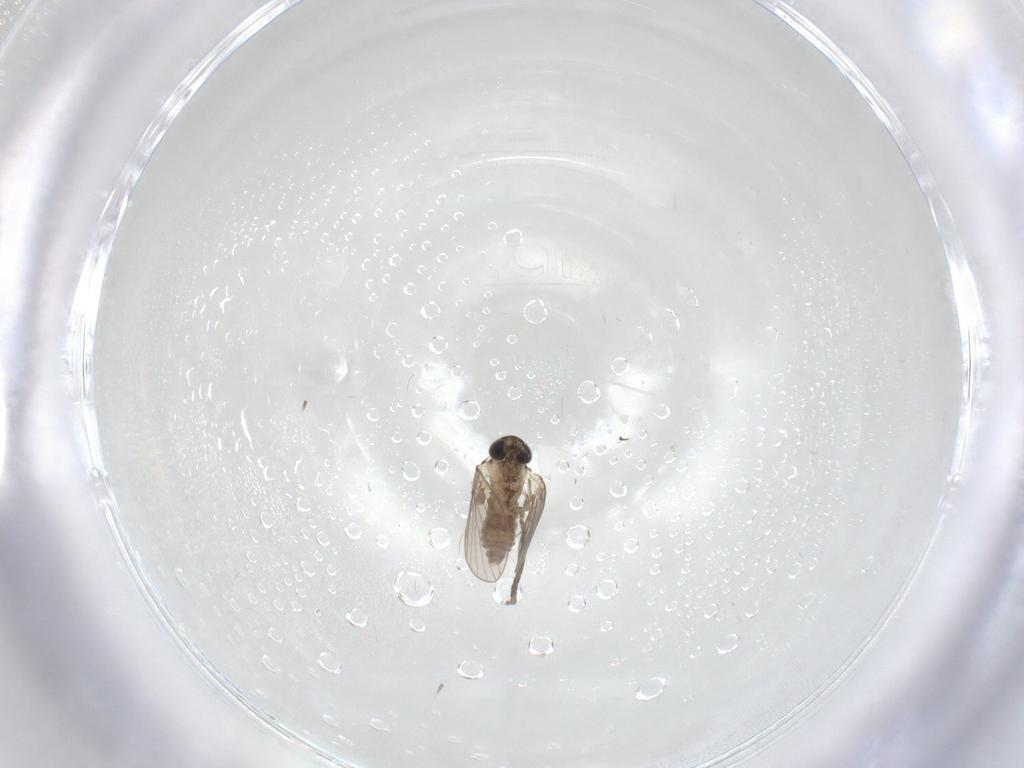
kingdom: Animalia
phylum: Arthropoda
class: Insecta
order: Diptera
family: Psychodidae
